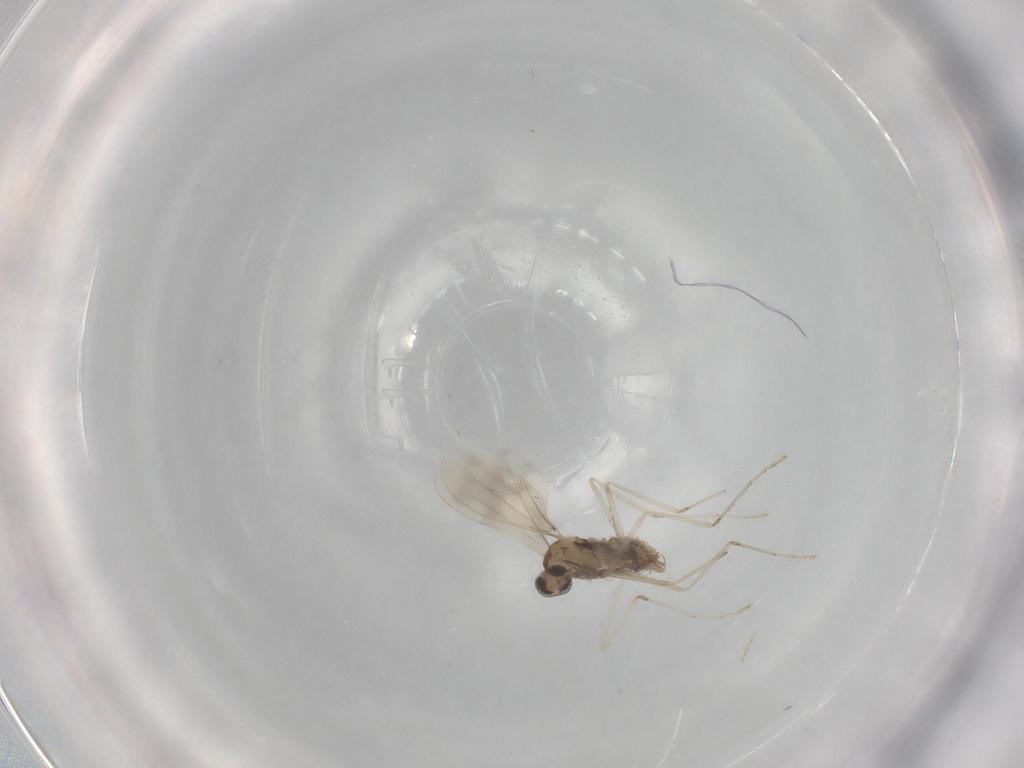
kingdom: Animalia
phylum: Arthropoda
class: Insecta
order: Diptera
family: Cecidomyiidae
